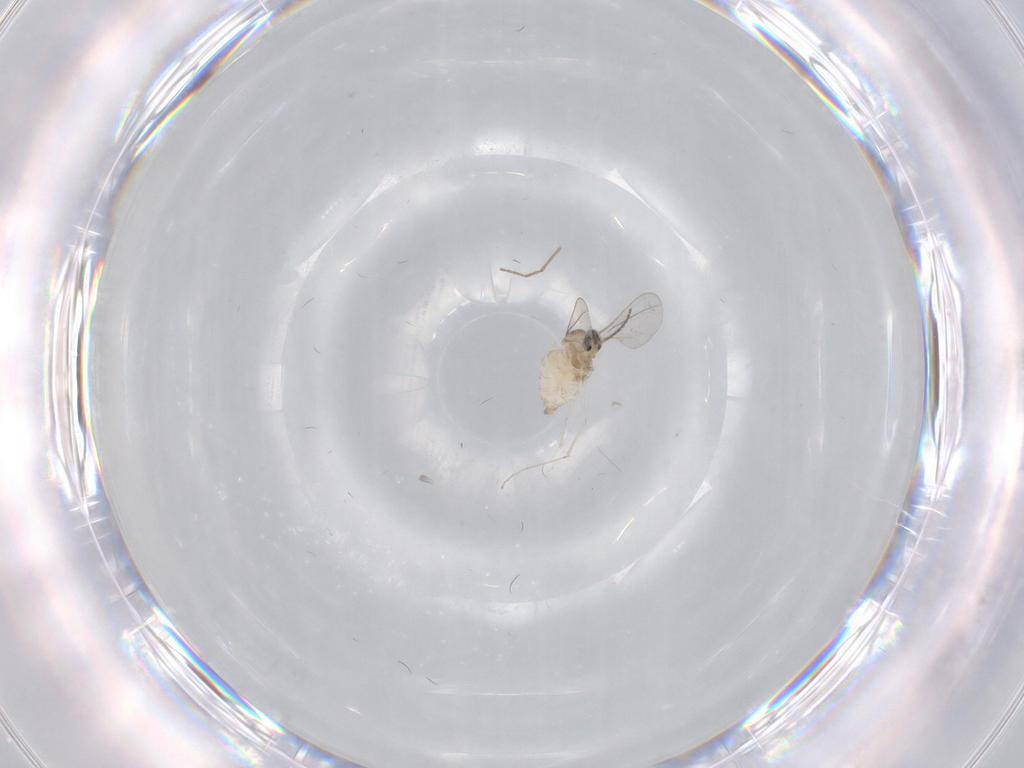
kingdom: Animalia
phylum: Arthropoda
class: Insecta
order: Diptera
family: Cecidomyiidae
